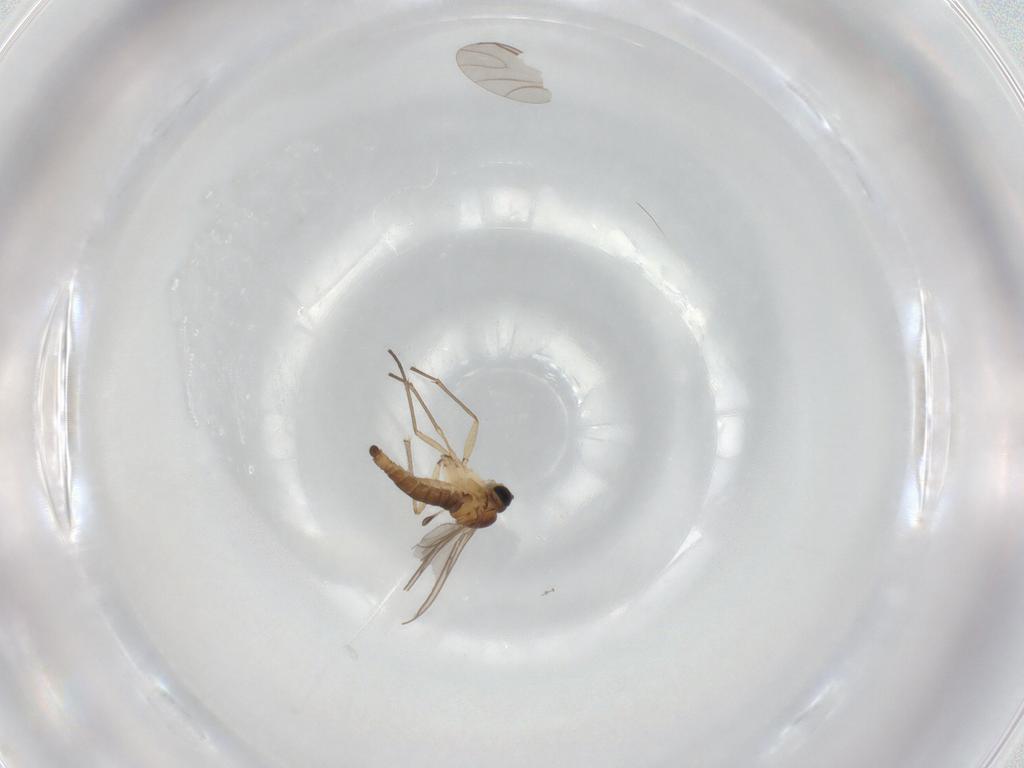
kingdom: Animalia
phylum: Arthropoda
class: Insecta
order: Diptera
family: Sciaridae
